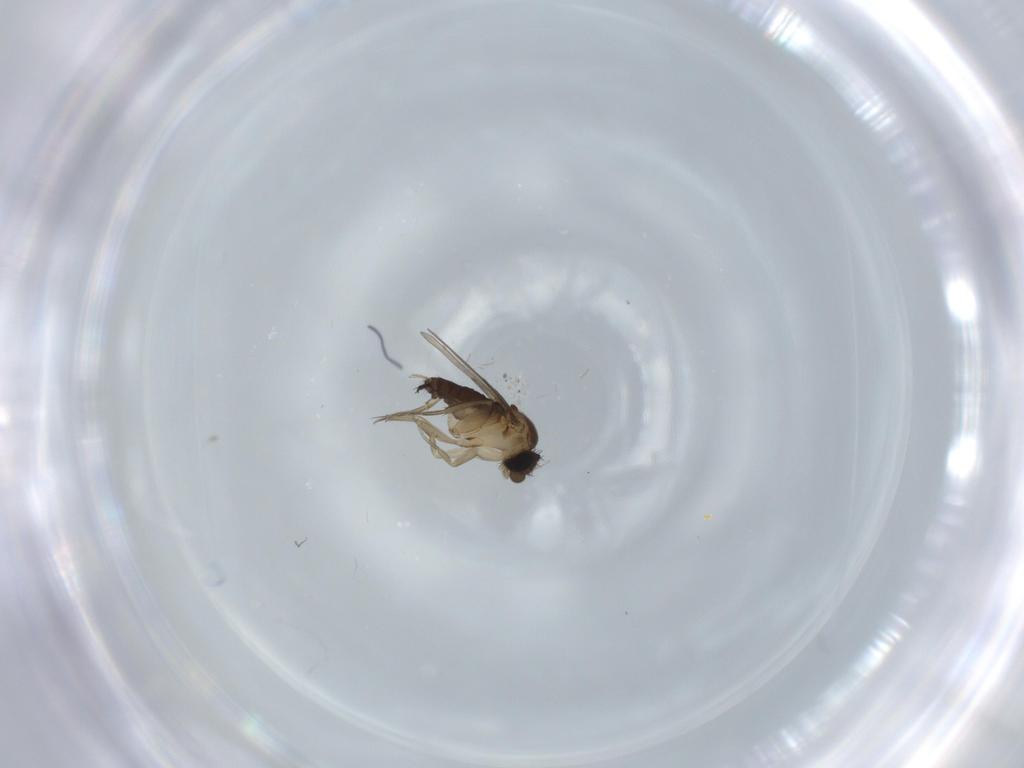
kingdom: Animalia
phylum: Arthropoda
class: Insecta
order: Diptera
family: Phoridae
